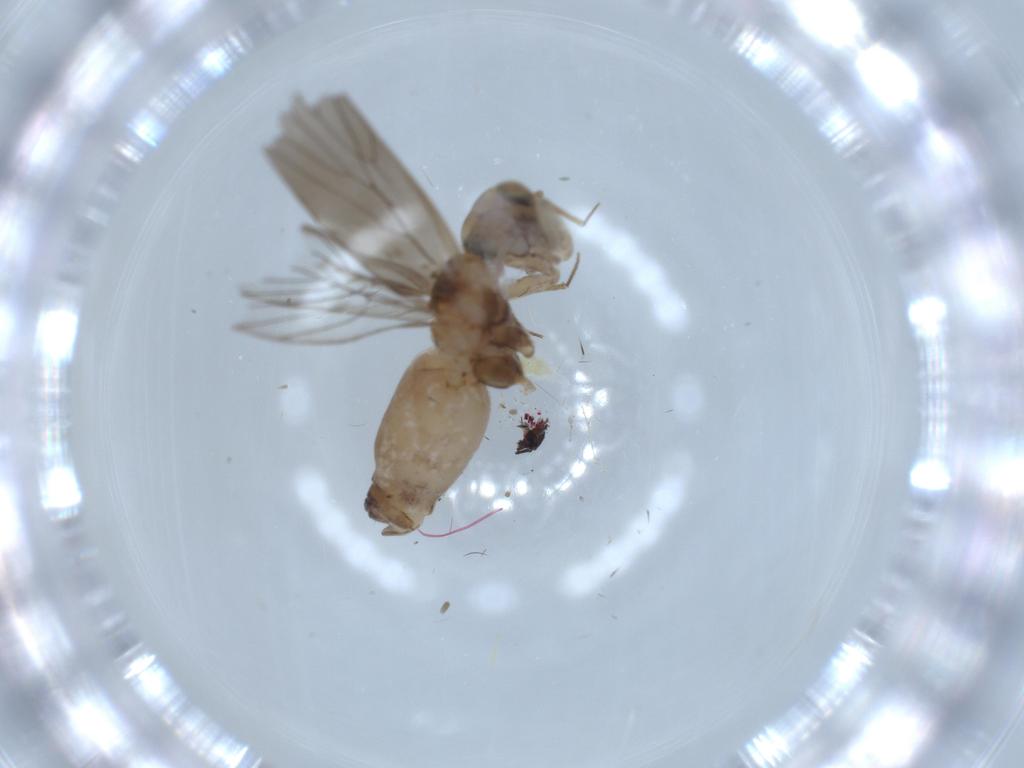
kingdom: Animalia
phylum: Arthropoda
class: Insecta
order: Psocodea
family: Lepidopsocidae
